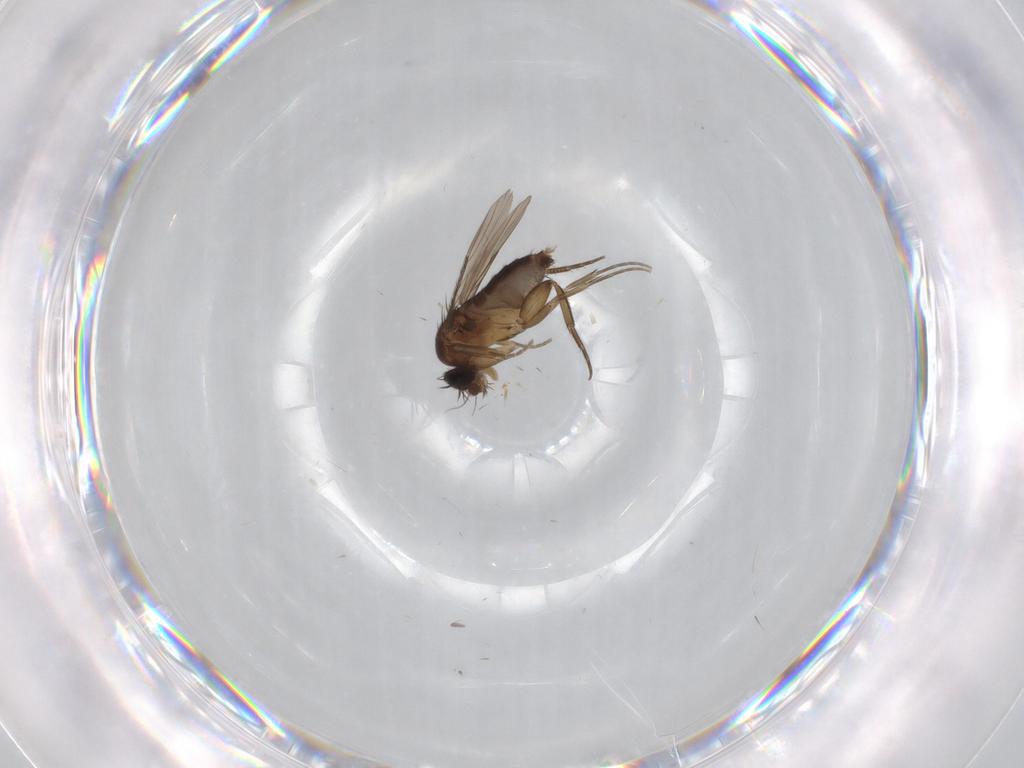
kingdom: Animalia
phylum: Arthropoda
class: Insecta
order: Diptera
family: Phoridae
